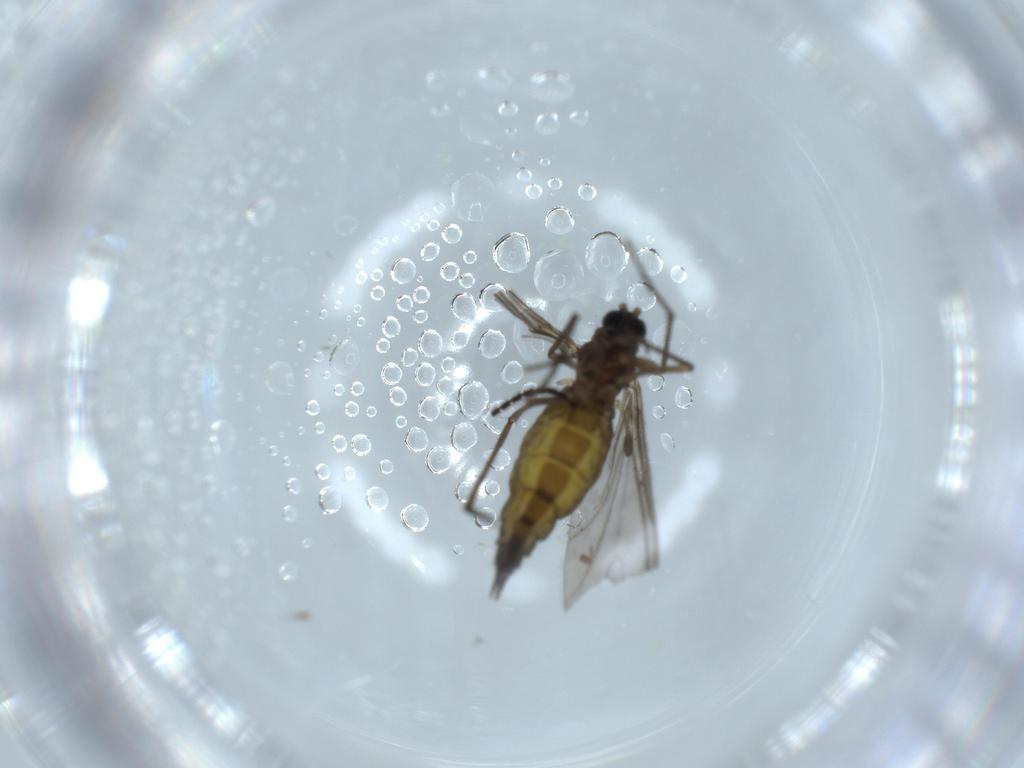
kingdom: Animalia
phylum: Arthropoda
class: Insecta
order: Diptera
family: Sciaridae
